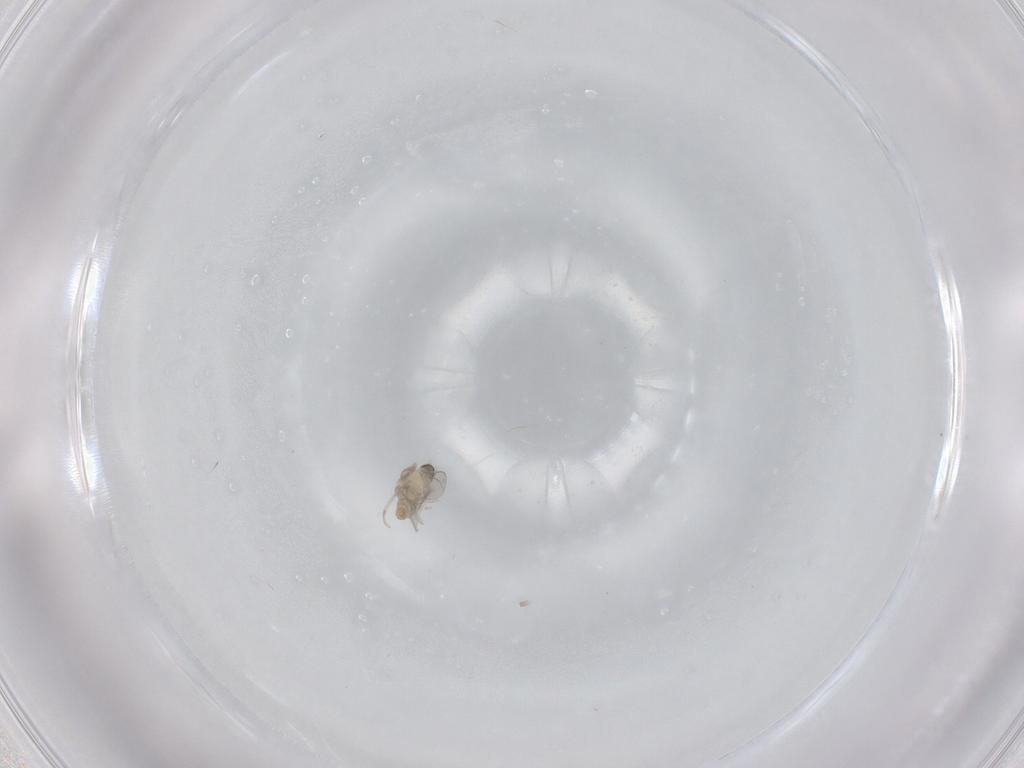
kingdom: Animalia
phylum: Arthropoda
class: Insecta
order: Diptera
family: Cecidomyiidae
